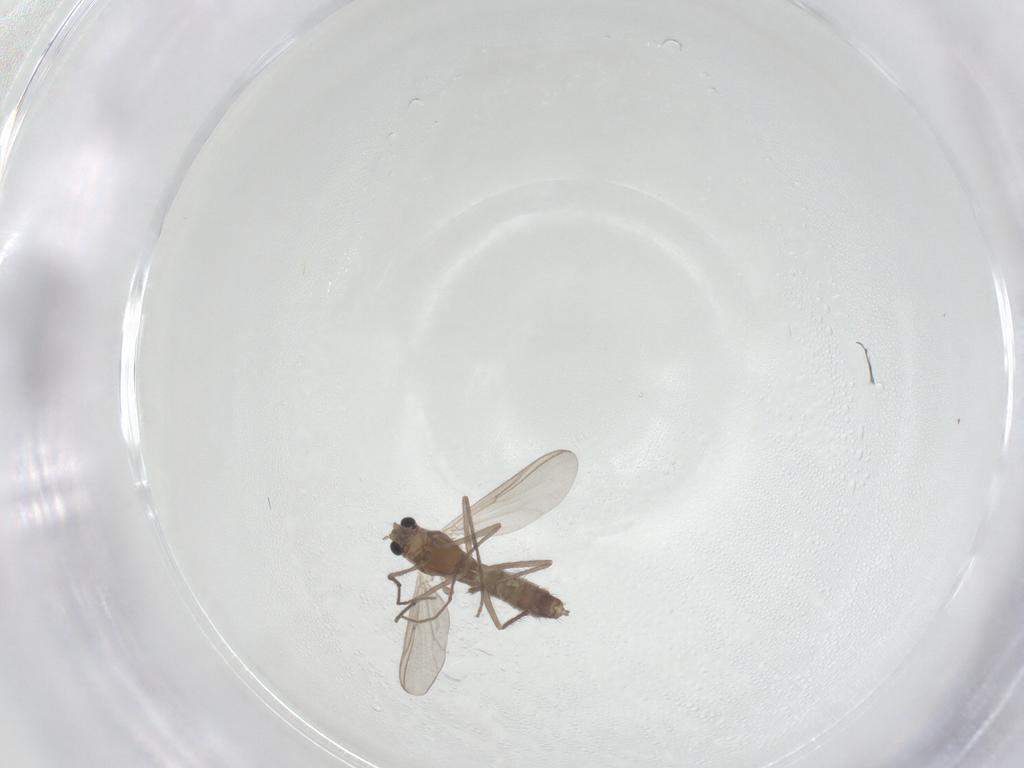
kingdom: Animalia
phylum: Arthropoda
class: Insecta
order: Diptera
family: Chironomidae
